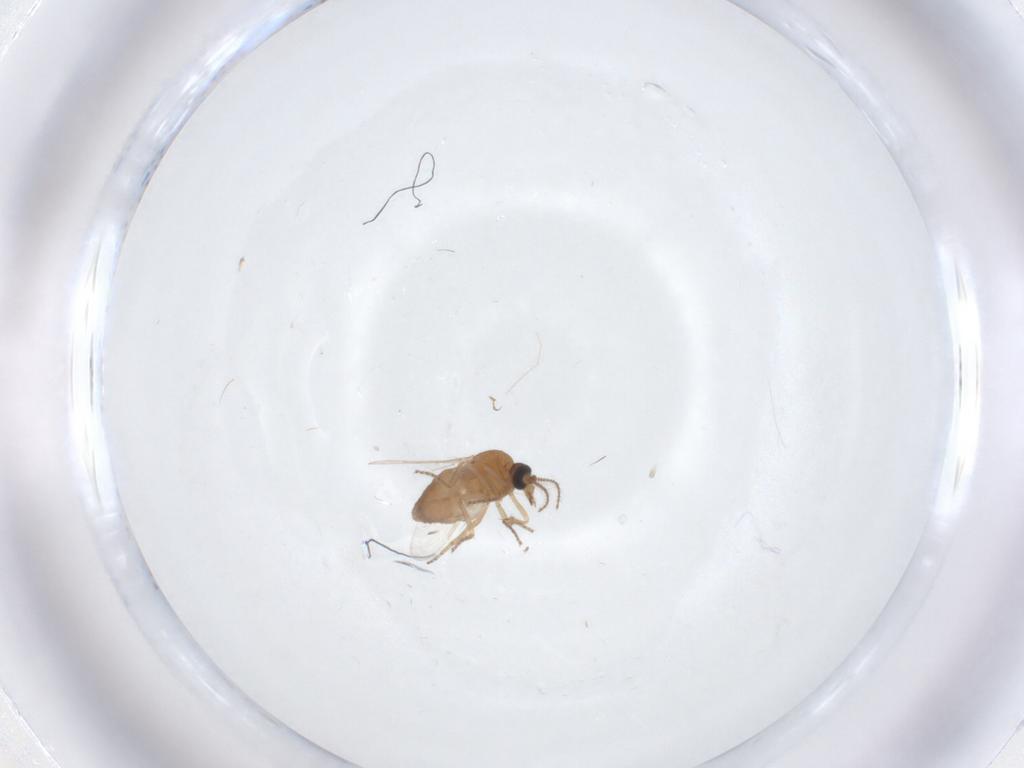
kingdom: Animalia
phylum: Arthropoda
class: Insecta
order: Diptera
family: Ceratopogonidae
